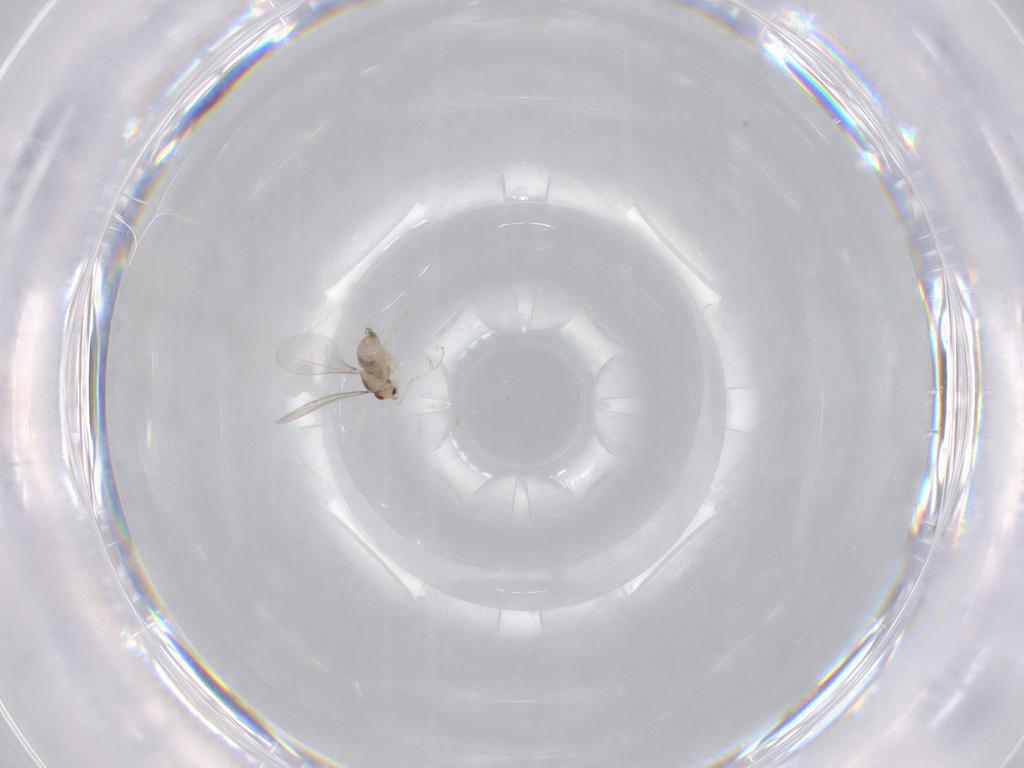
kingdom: Animalia
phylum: Arthropoda
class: Insecta
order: Diptera
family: Cecidomyiidae
